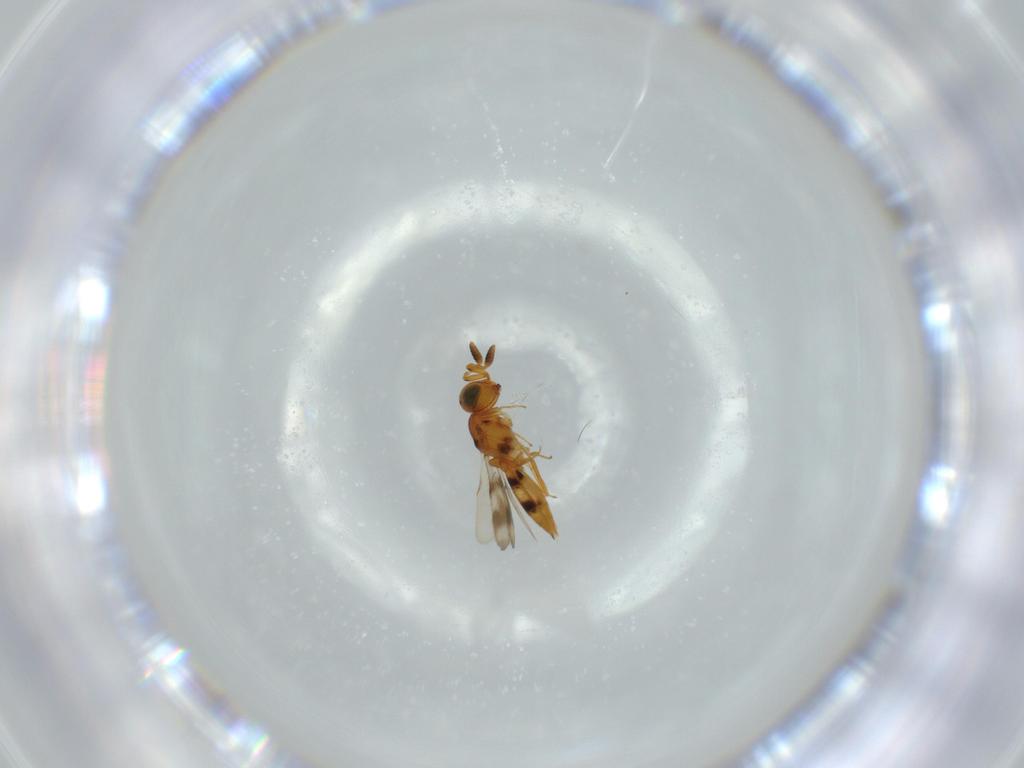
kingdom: Animalia
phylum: Arthropoda
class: Insecta
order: Hymenoptera
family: Scelionidae
